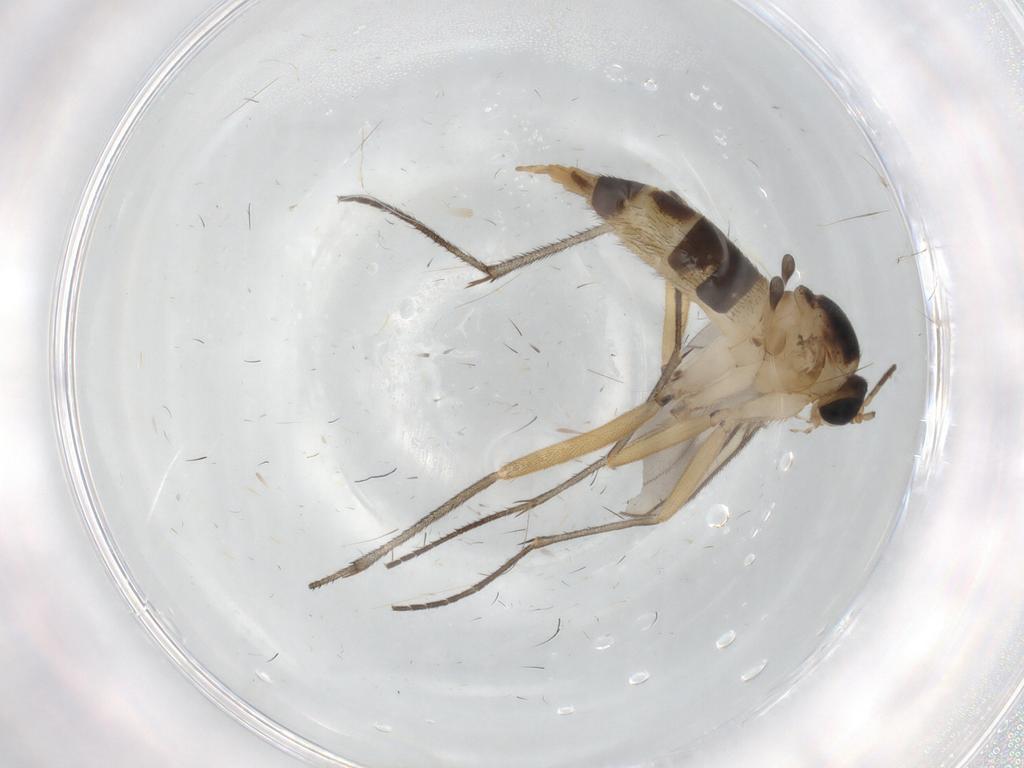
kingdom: Animalia
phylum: Arthropoda
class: Insecta
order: Diptera
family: Sciaridae
